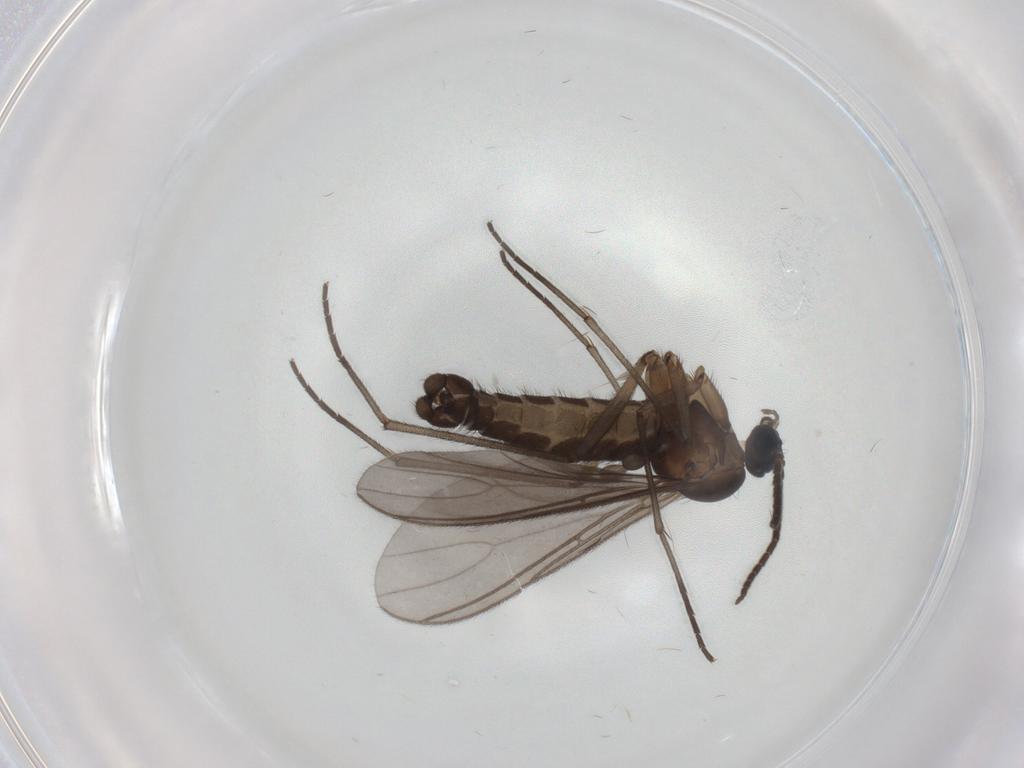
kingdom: Animalia
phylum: Arthropoda
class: Insecta
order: Diptera
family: Sciaridae
